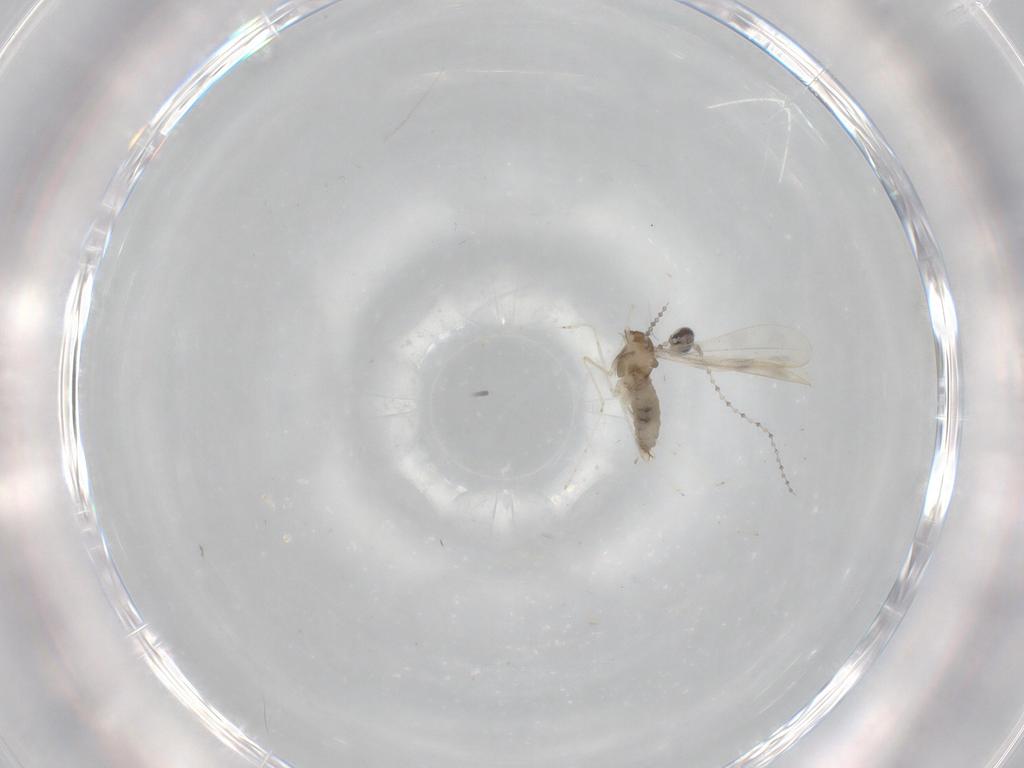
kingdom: Animalia
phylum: Arthropoda
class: Insecta
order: Diptera
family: Cecidomyiidae
